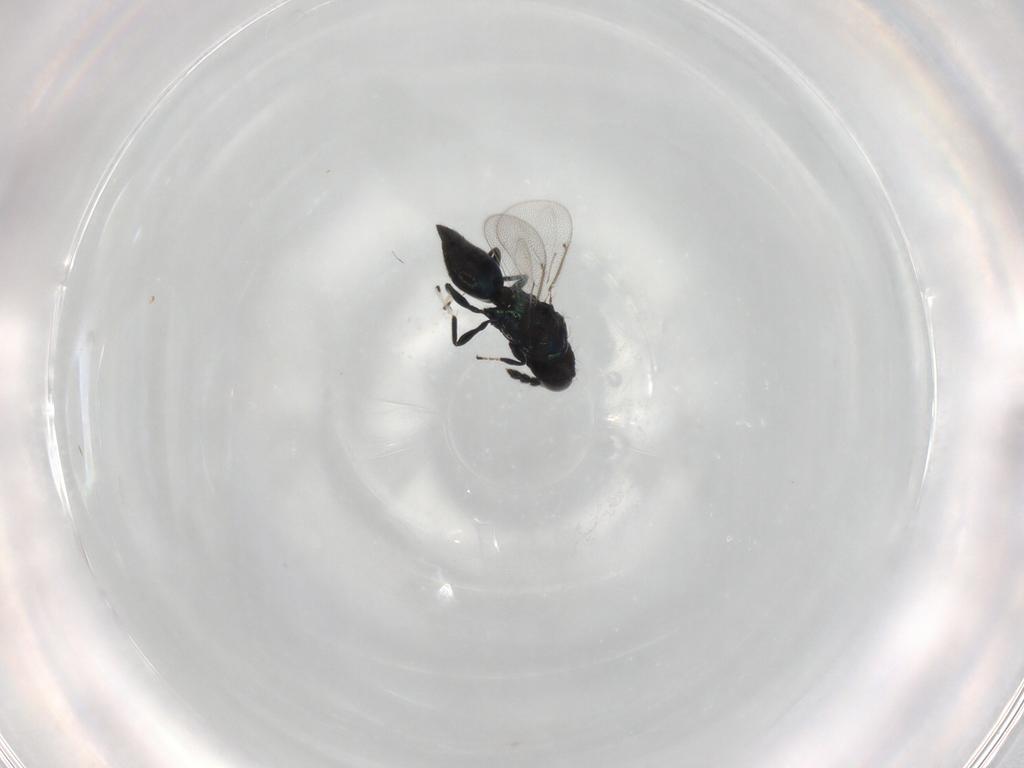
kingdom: Animalia
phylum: Arthropoda
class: Insecta
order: Hymenoptera
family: Eulophidae
